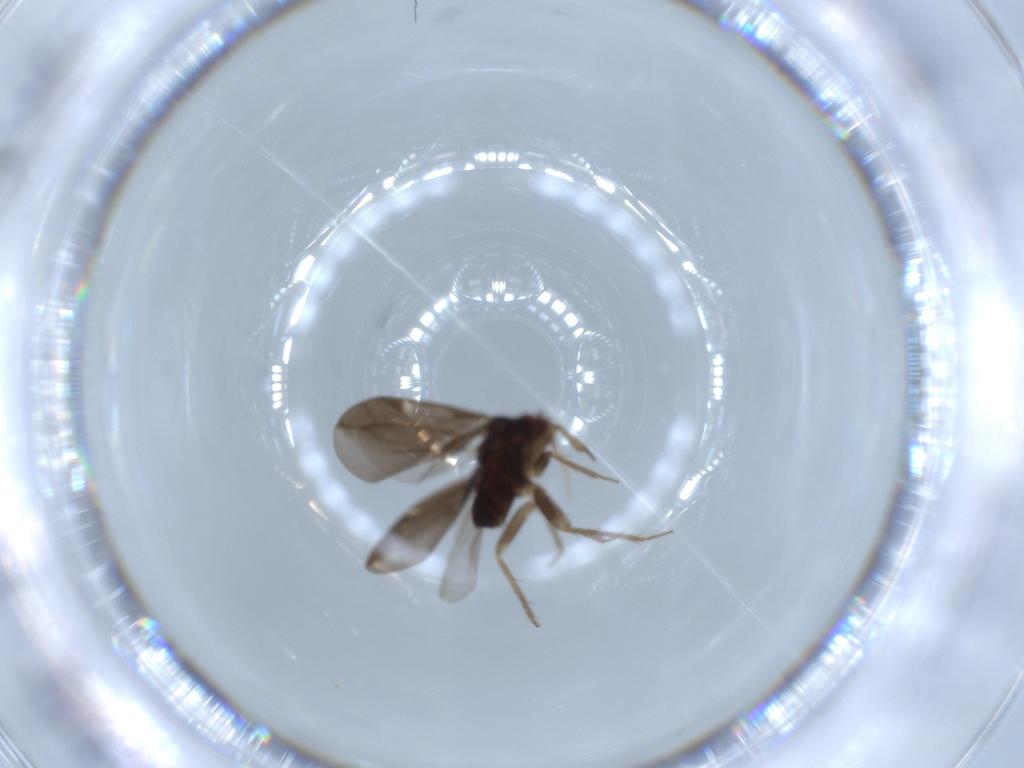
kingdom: Animalia
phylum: Arthropoda
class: Insecta
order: Hemiptera
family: Ceratocombidae
